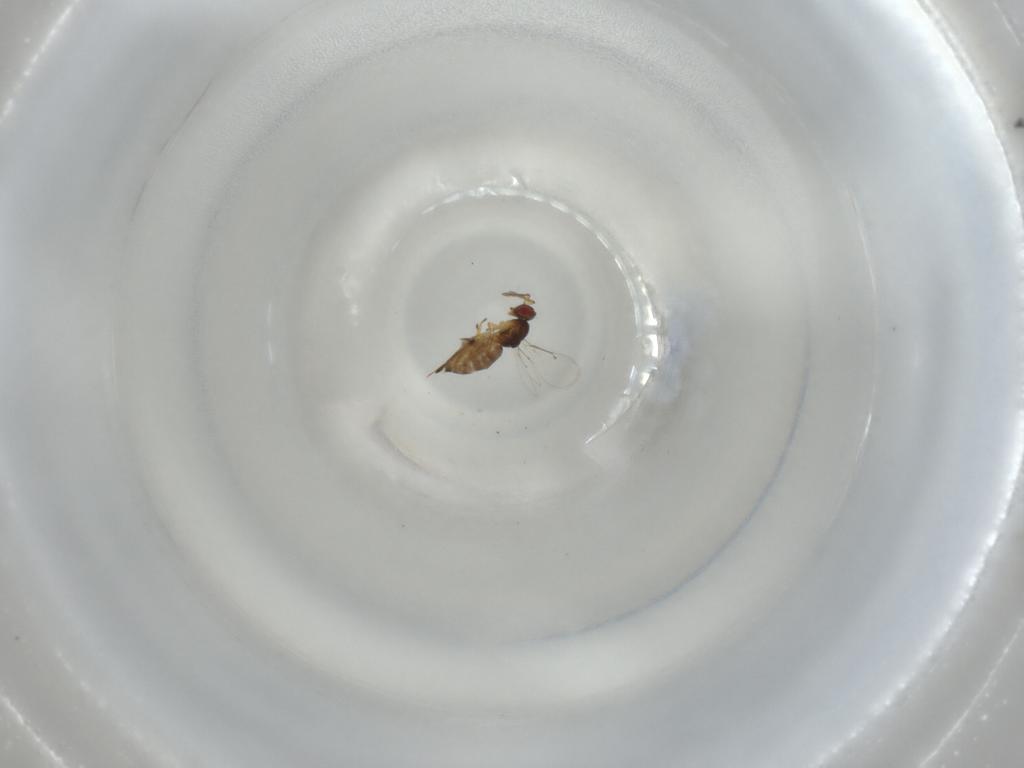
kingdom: Animalia
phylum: Arthropoda
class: Insecta
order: Hymenoptera
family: Eulophidae
